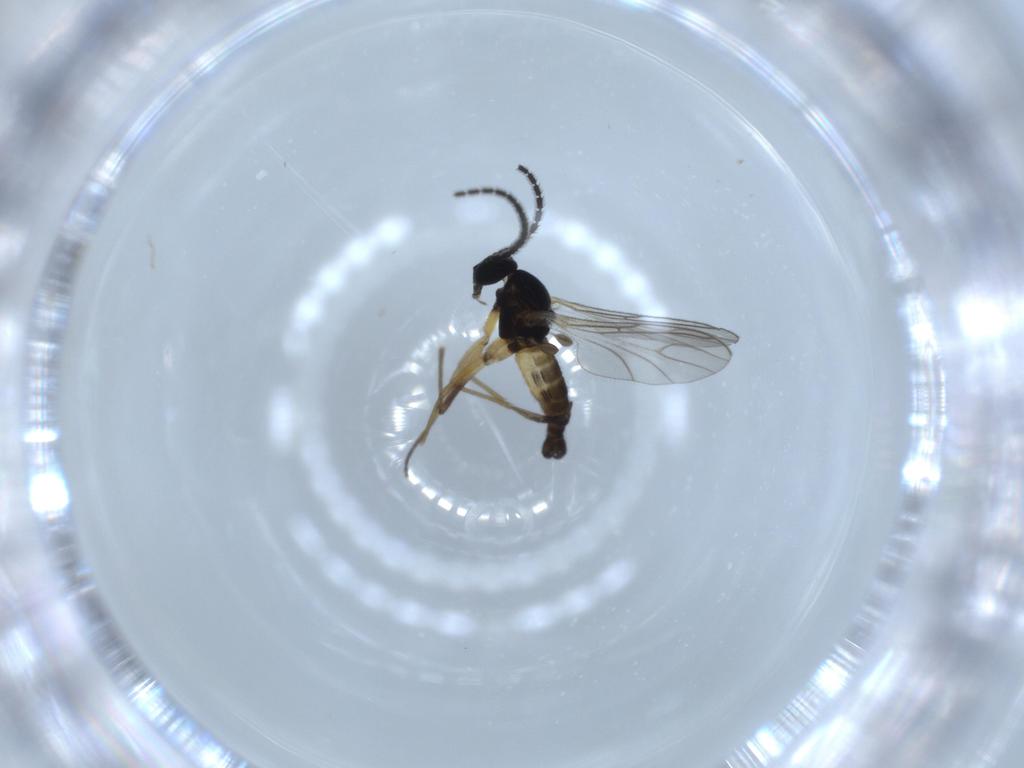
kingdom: Animalia
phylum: Arthropoda
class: Insecta
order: Diptera
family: Sciaridae
